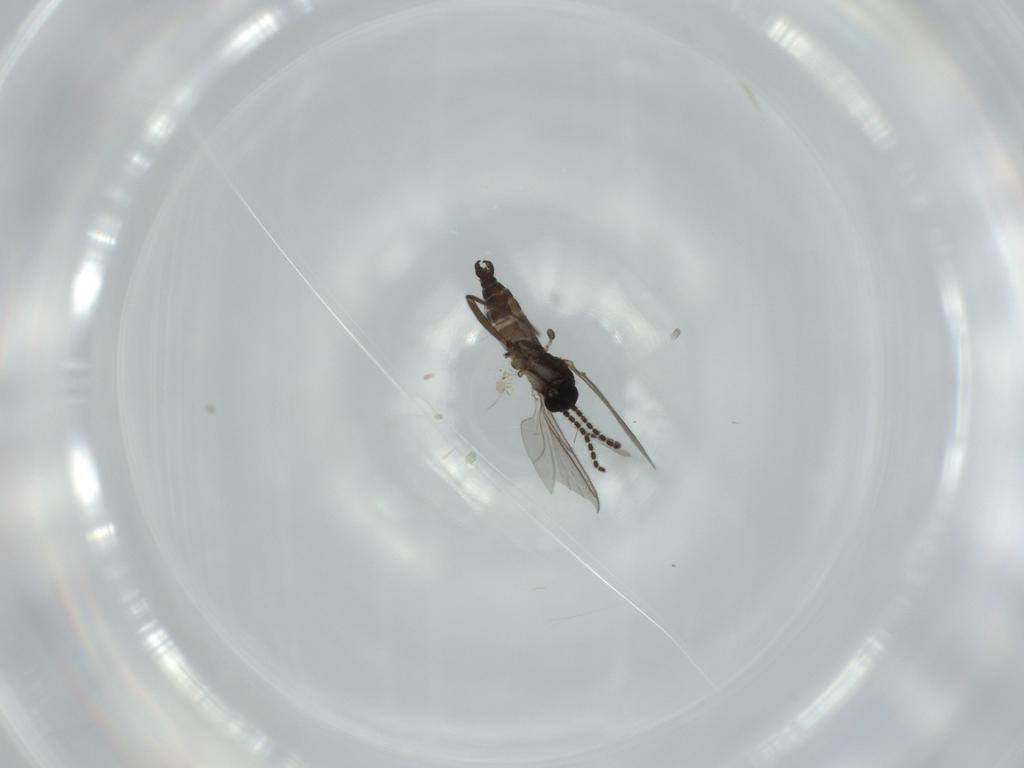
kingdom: Animalia
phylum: Arthropoda
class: Insecta
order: Diptera
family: Sciaridae
